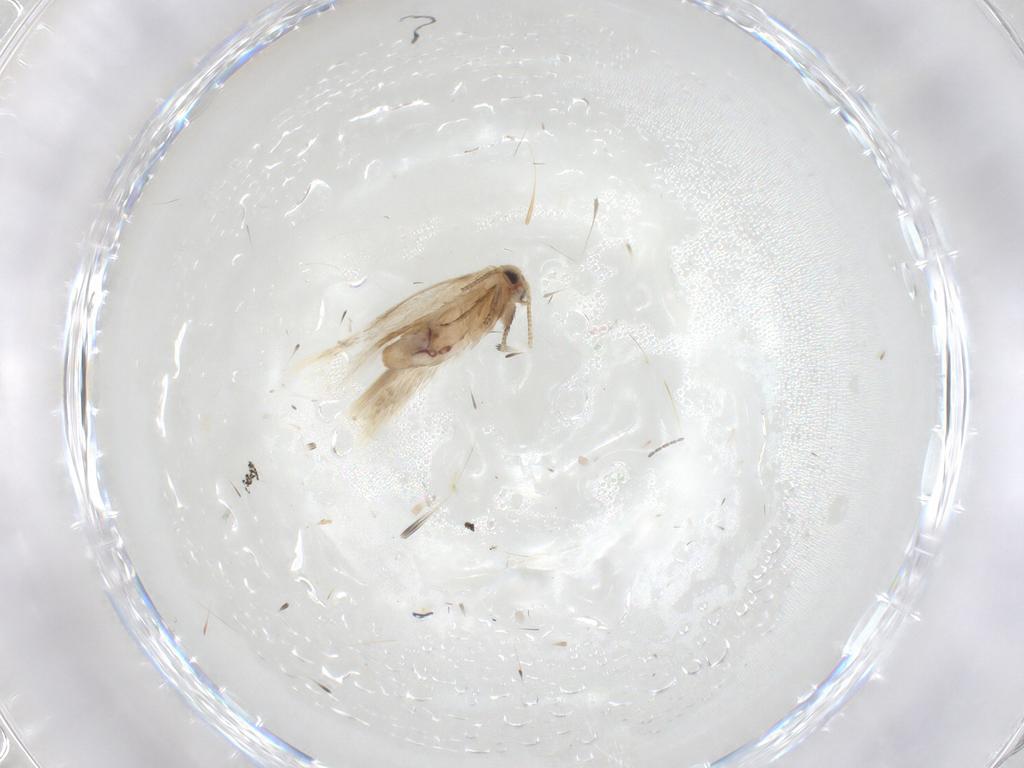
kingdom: Animalia
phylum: Arthropoda
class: Insecta
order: Lepidoptera
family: Nepticulidae
